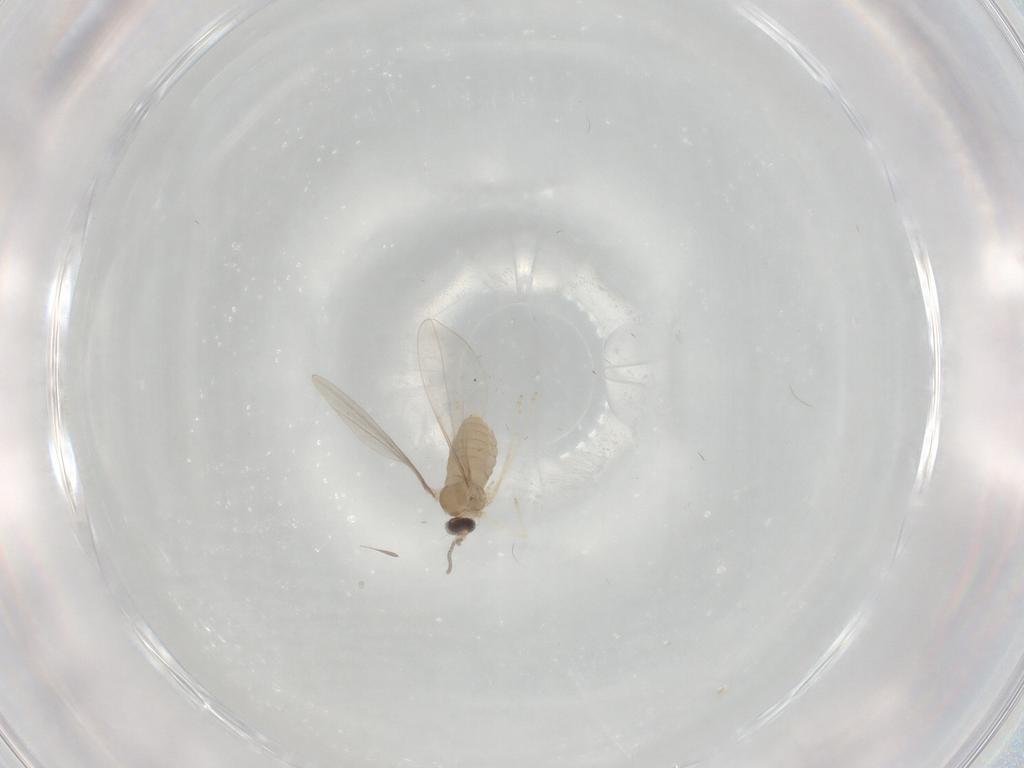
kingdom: Animalia
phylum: Arthropoda
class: Insecta
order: Diptera
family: Cecidomyiidae
